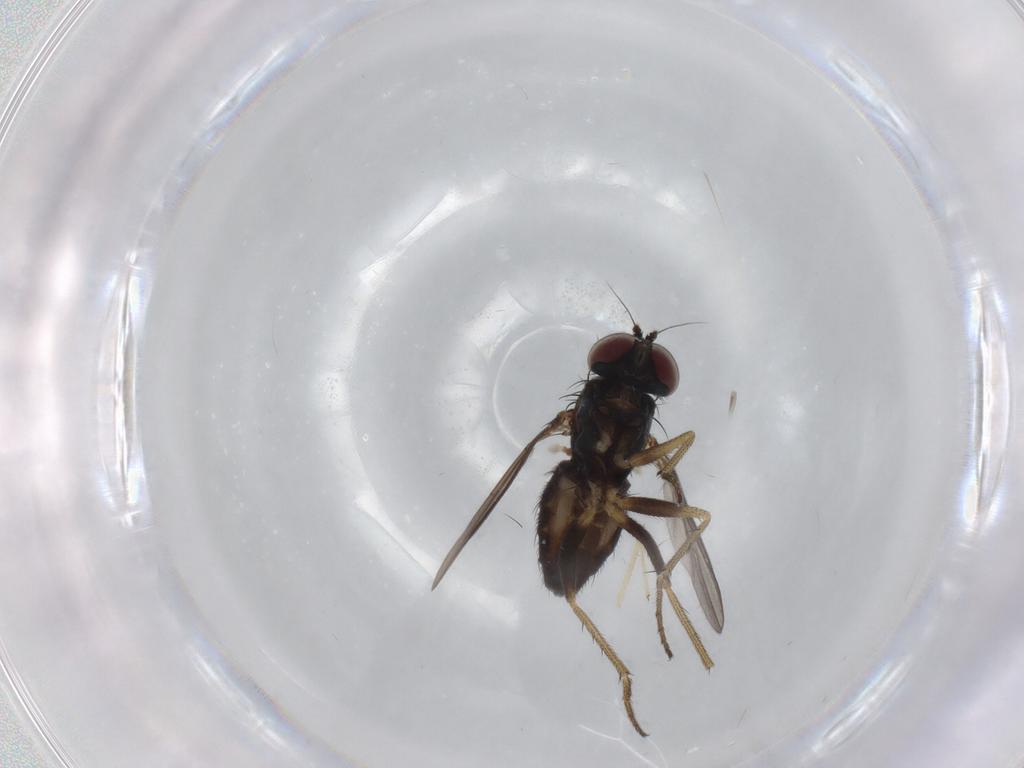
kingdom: Animalia
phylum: Arthropoda
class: Insecta
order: Diptera
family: Dolichopodidae
